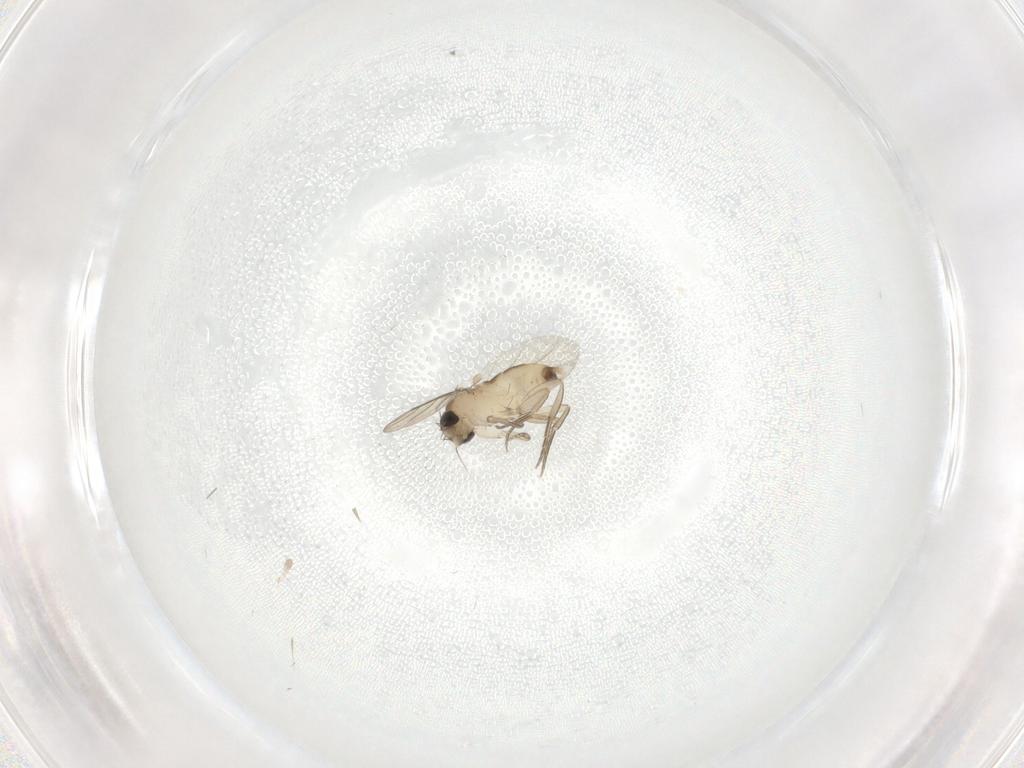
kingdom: Animalia
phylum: Arthropoda
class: Insecta
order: Diptera
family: Phoridae
